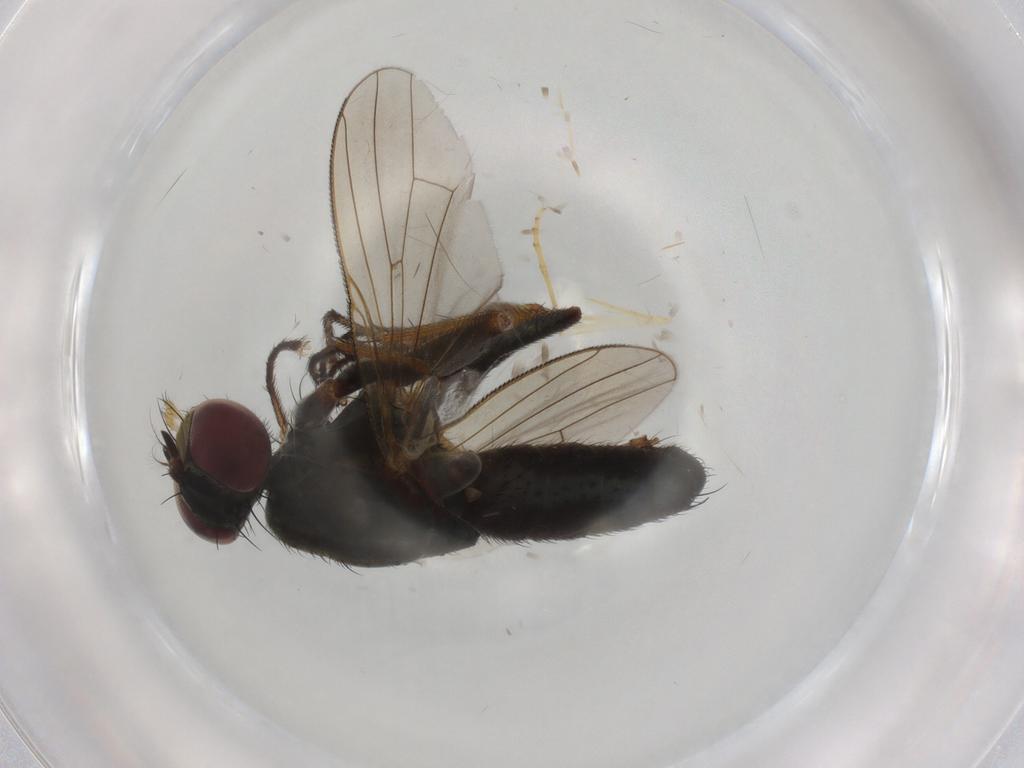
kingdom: Animalia
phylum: Arthropoda
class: Insecta
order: Diptera
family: Muscidae
